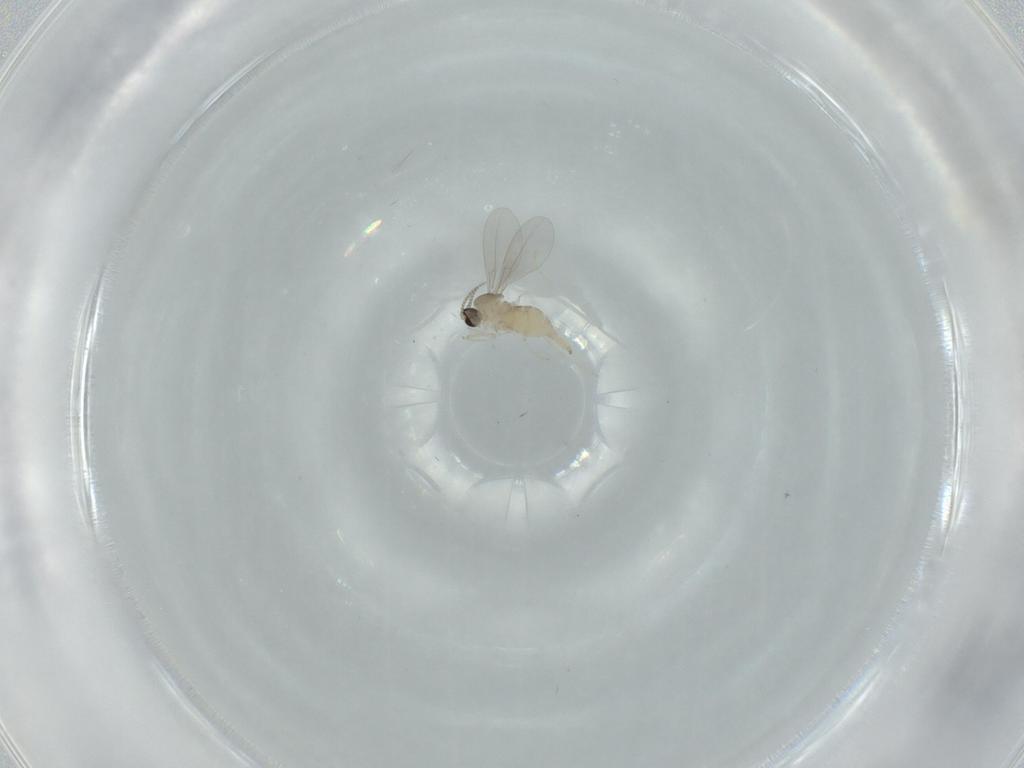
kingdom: Animalia
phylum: Arthropoda
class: Insecta
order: Diptera
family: Cecidomyiidae
